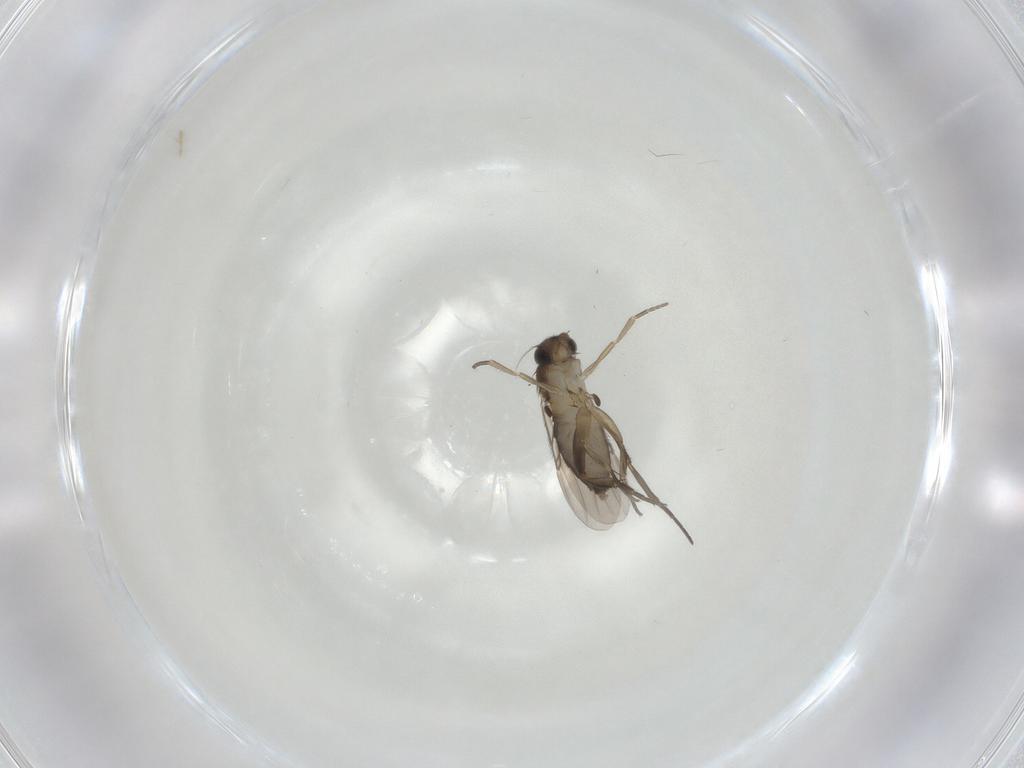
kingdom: Animalia
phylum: Arthropoda
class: Insecta
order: Diptera
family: Phoridae
